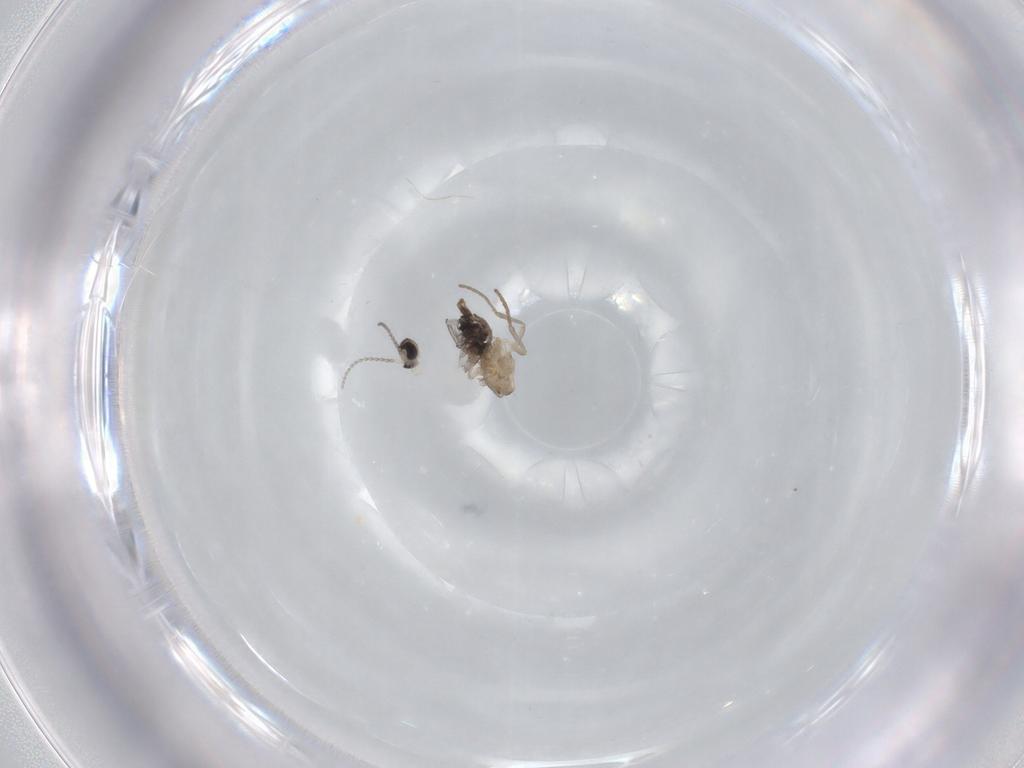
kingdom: Animalia
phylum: Arthropoda
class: Insecta
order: Diptera
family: Cecidomyiidae
